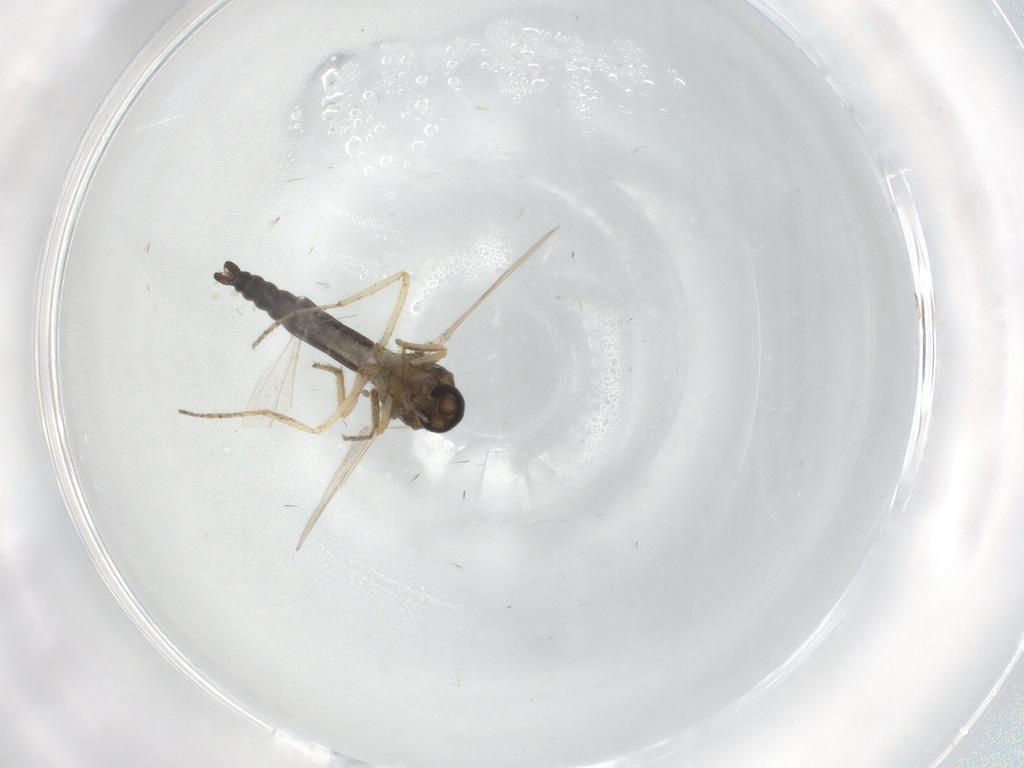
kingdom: Animalia
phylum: Arthropoda
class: Insecta
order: Diptera
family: Ceratopogonidae
